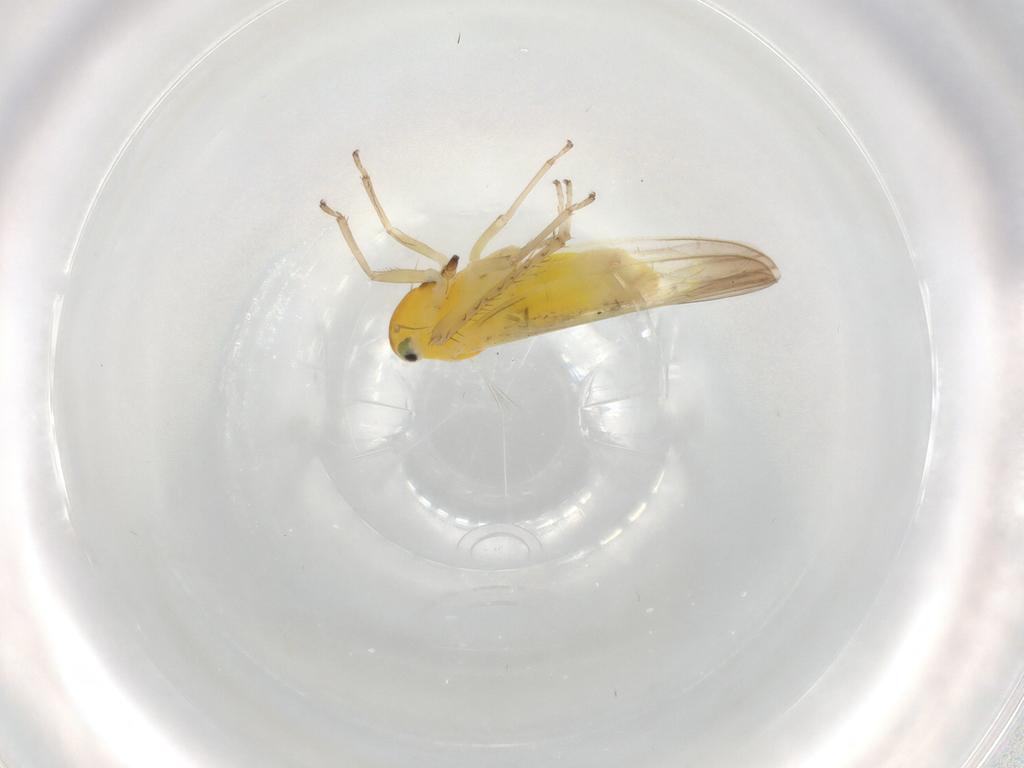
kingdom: Animalia
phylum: Arthropoda
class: Insecta
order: Hemiptera
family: Cicadellidae
